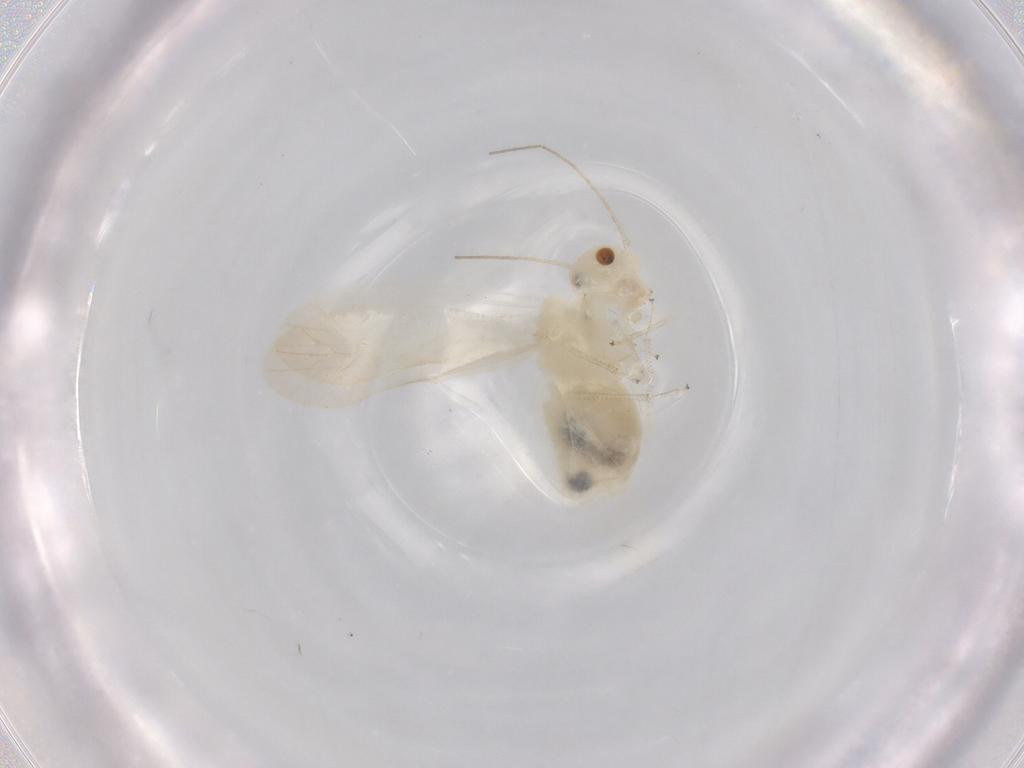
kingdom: Animalia
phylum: Arthropoda
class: Insecta
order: Psocodea
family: Caeciliusidae
